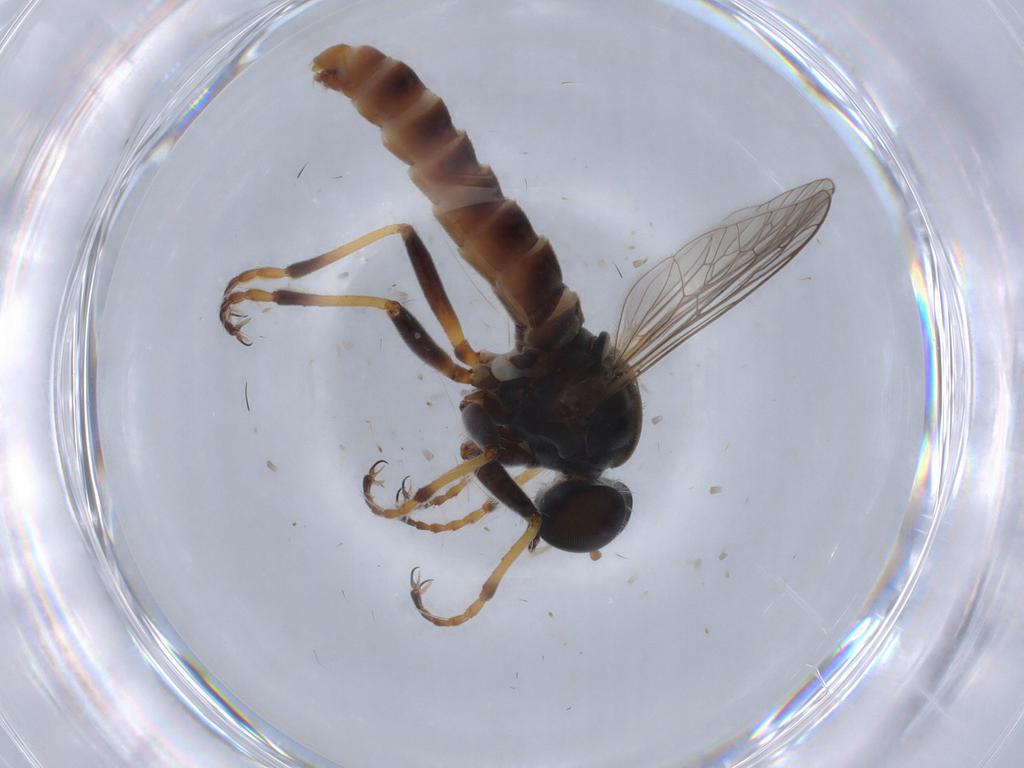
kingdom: Animalia
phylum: Arthropoda
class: Insecta
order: Diptera
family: Asilidae
